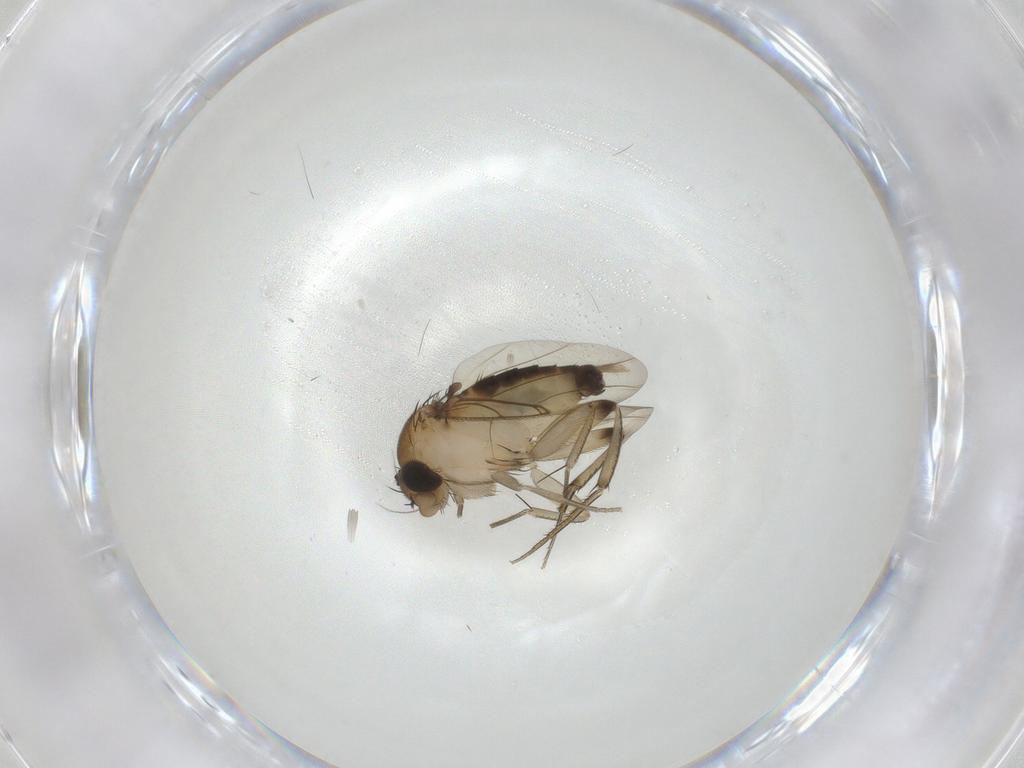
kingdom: Animalia
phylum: Arthropoda
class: Insecta
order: Diptera
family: Phoridae
